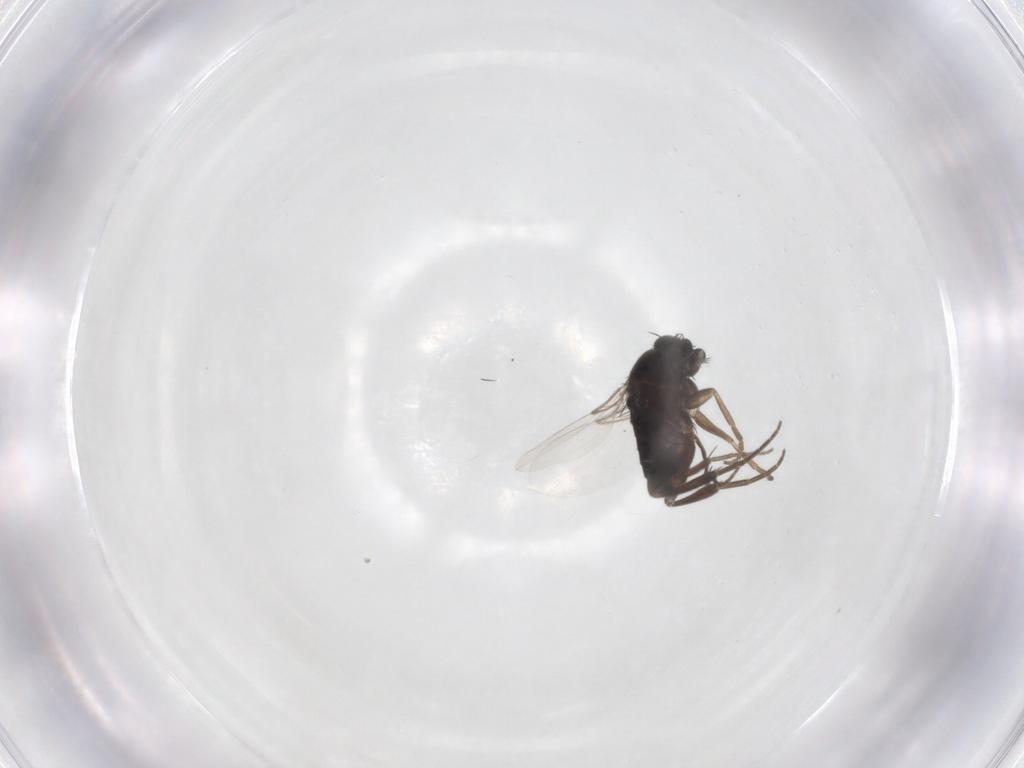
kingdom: Animalia
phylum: Arthropoda
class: Insecta
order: Diptera
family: Phoridae
